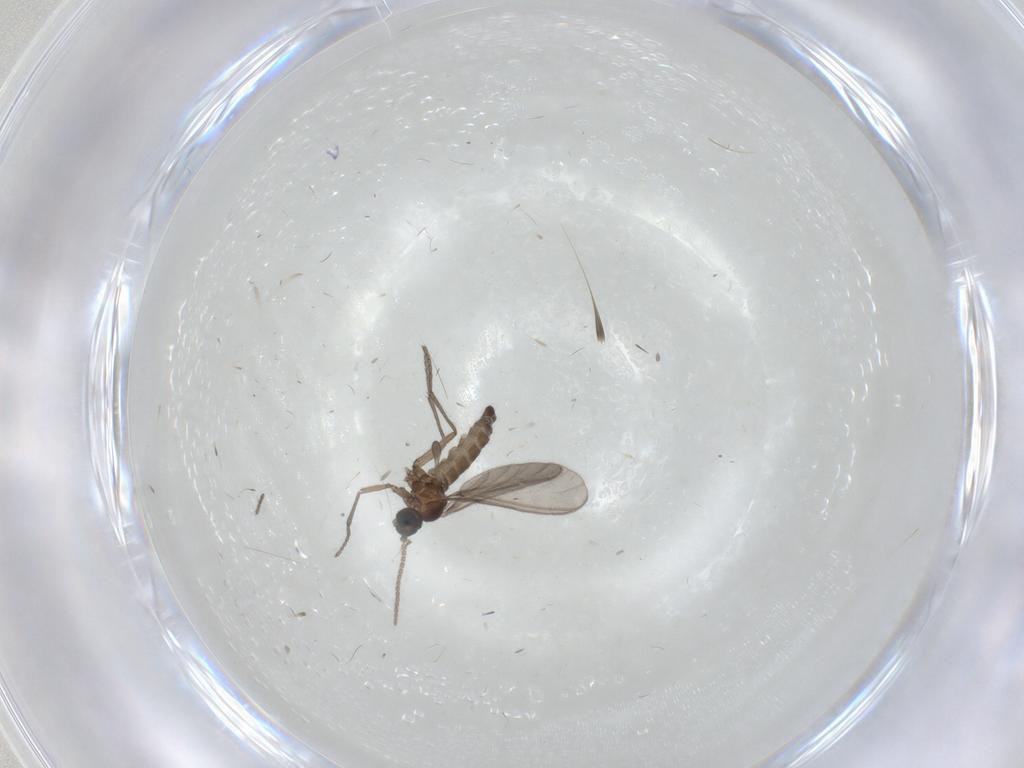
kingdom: Animalia
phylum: Arthropoda
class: Insecta
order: Diptera
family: Sciaridae
